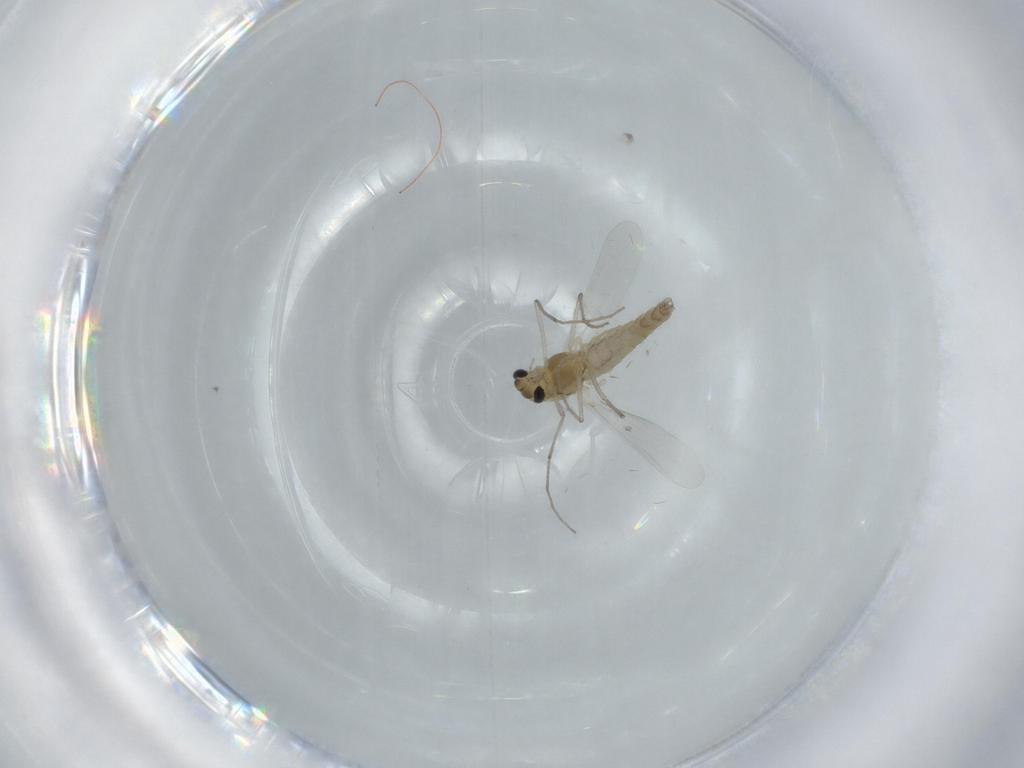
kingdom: Animalia
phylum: Arthropoda
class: Insecta
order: Diptera
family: Chironomidae
